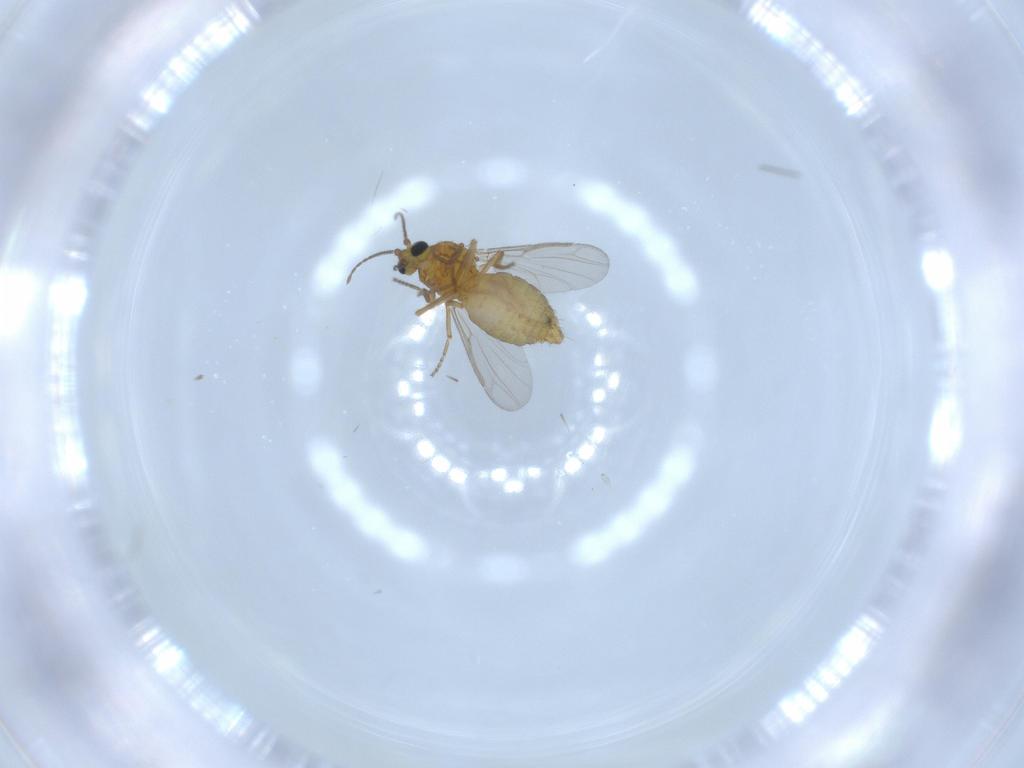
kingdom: Animalia
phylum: Arthropoda
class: Insecta
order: Diptera
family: Ceratopogonidae
